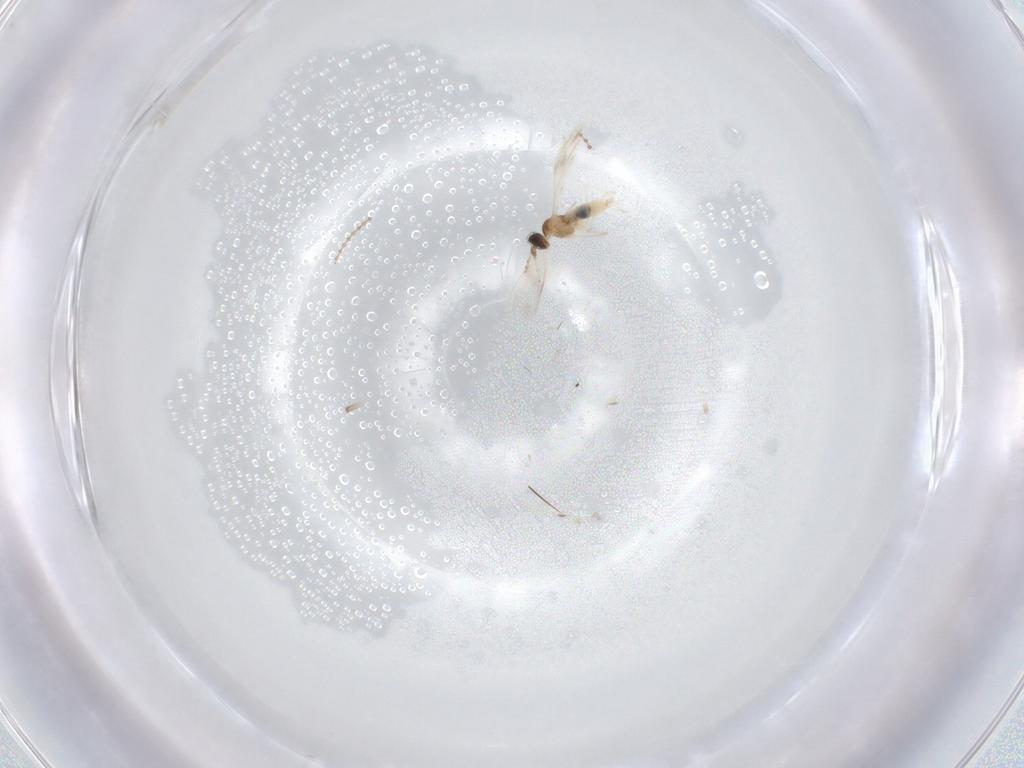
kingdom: Animalia
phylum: Arthropoda
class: Insecta
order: Diptera
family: Cecidomyiidae
